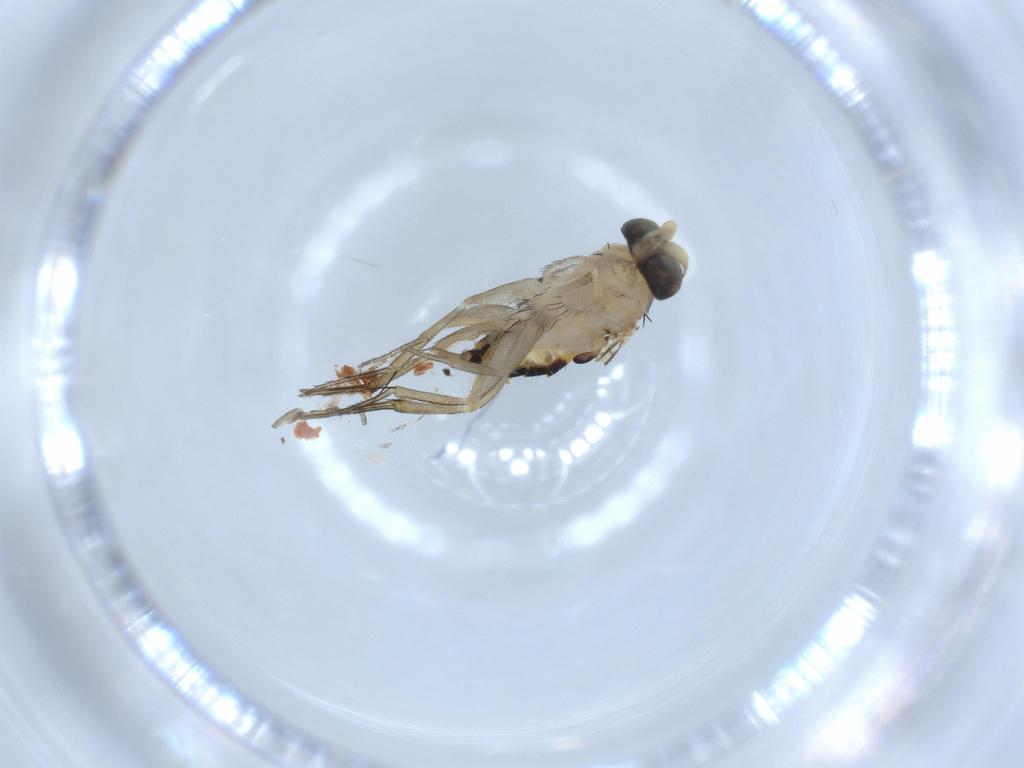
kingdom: Animalia
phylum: Arthropoda
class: Insecta
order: Diptera
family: Phoridae
